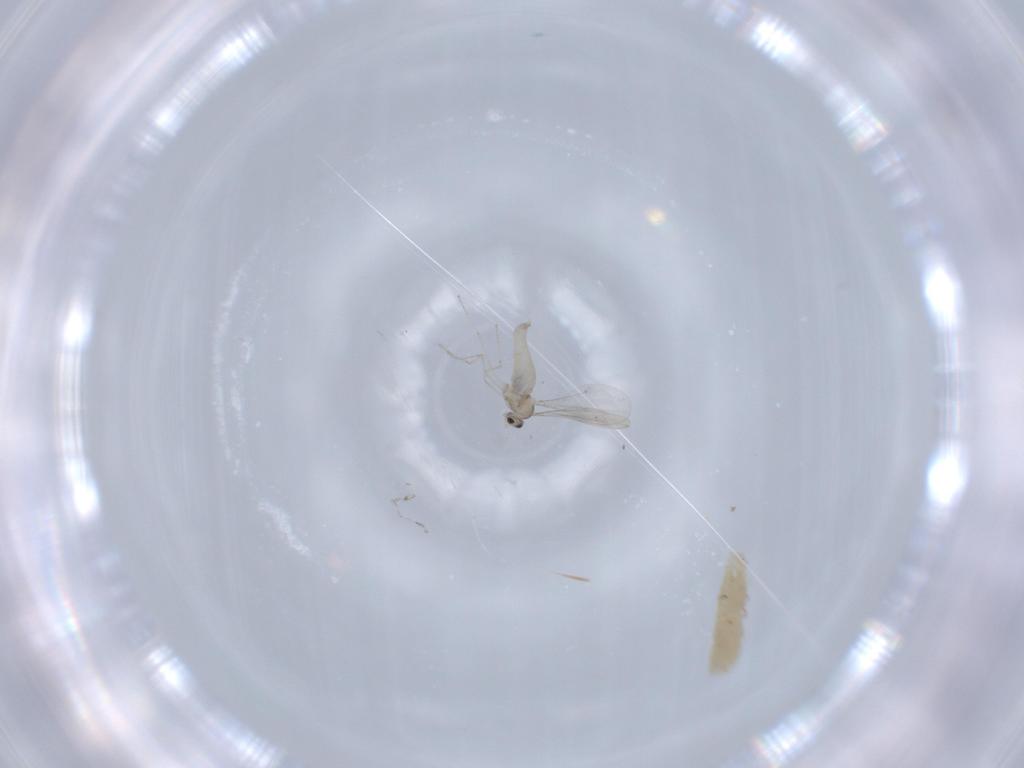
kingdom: Animalia
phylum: Arthropoda
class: Insecta
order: Diptera
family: Cecidomyiidae
